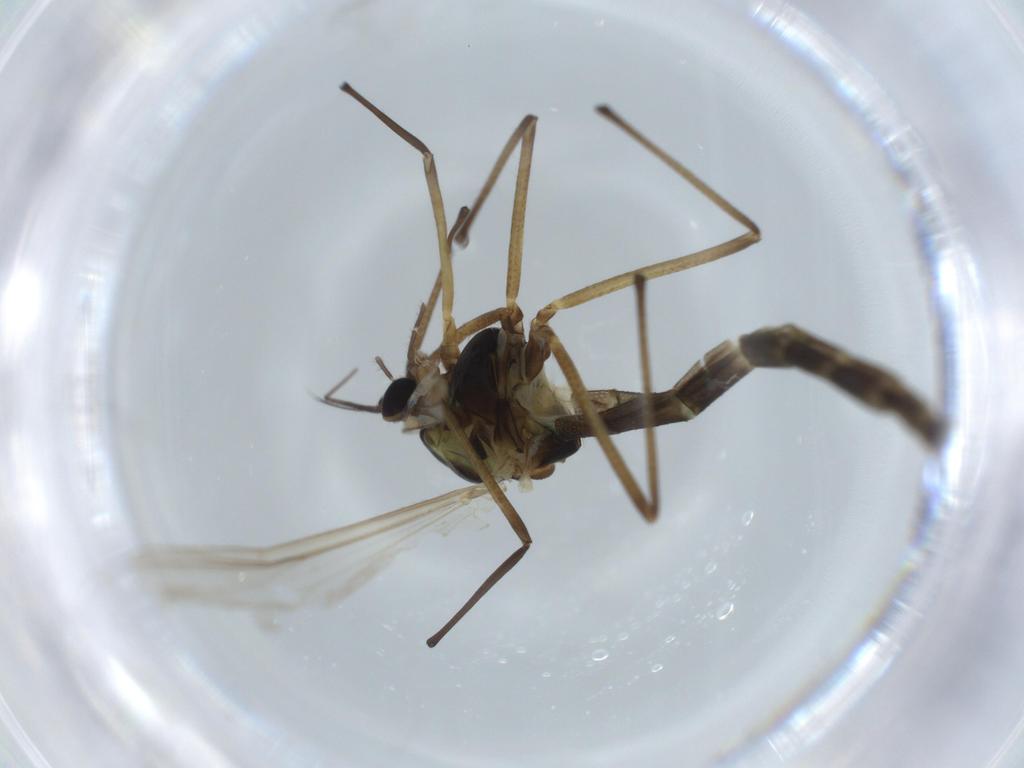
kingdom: Animalia
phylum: Arthropoda
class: Insecta
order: Diptera
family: Chironomidae
